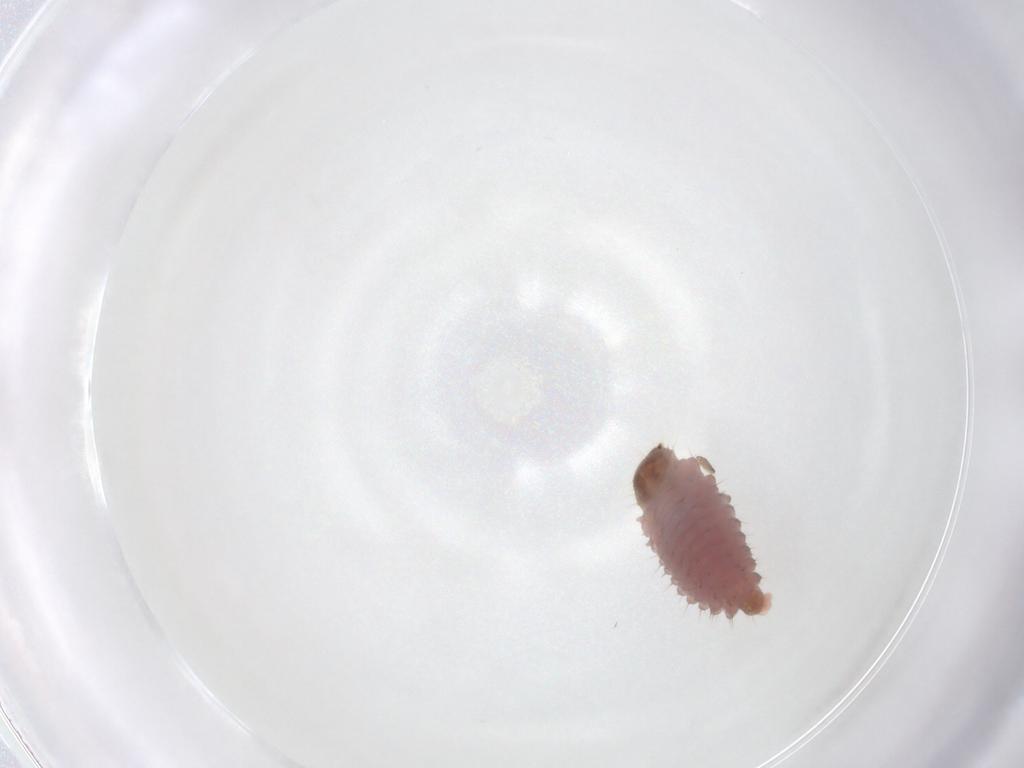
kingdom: Animalia
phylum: Arthropoda
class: Insecta
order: Coleoptera
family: Coccinellidae
